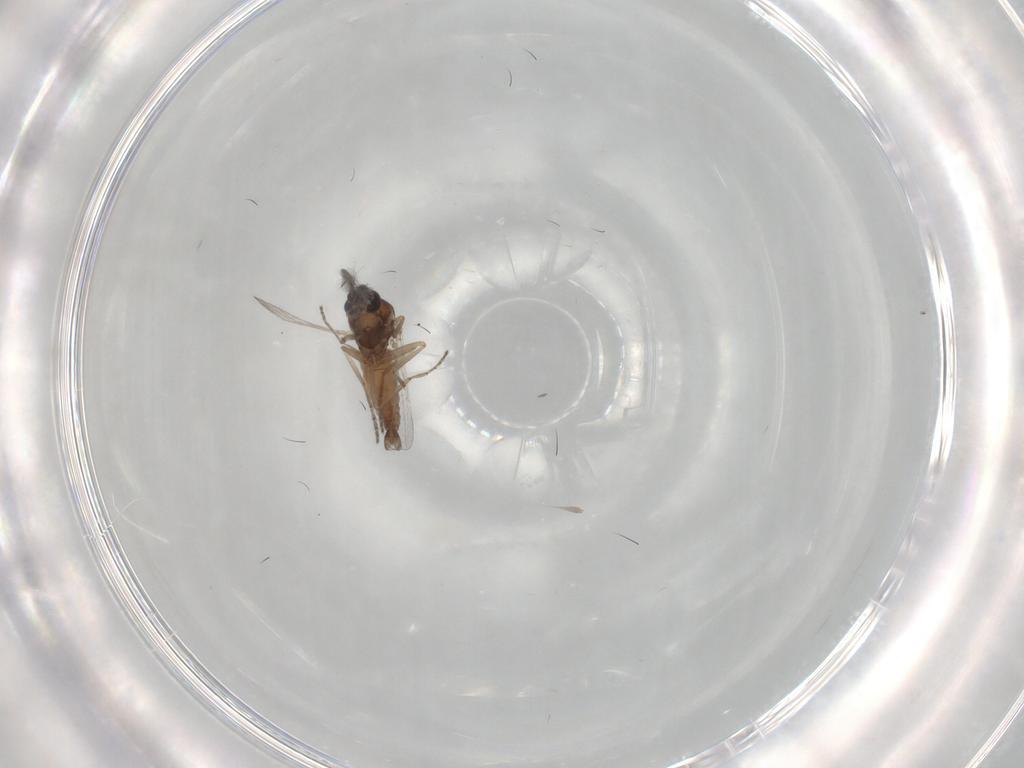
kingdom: Animalia
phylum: Arthropoda
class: Insecta
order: Diptera
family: Dolichopodidae
